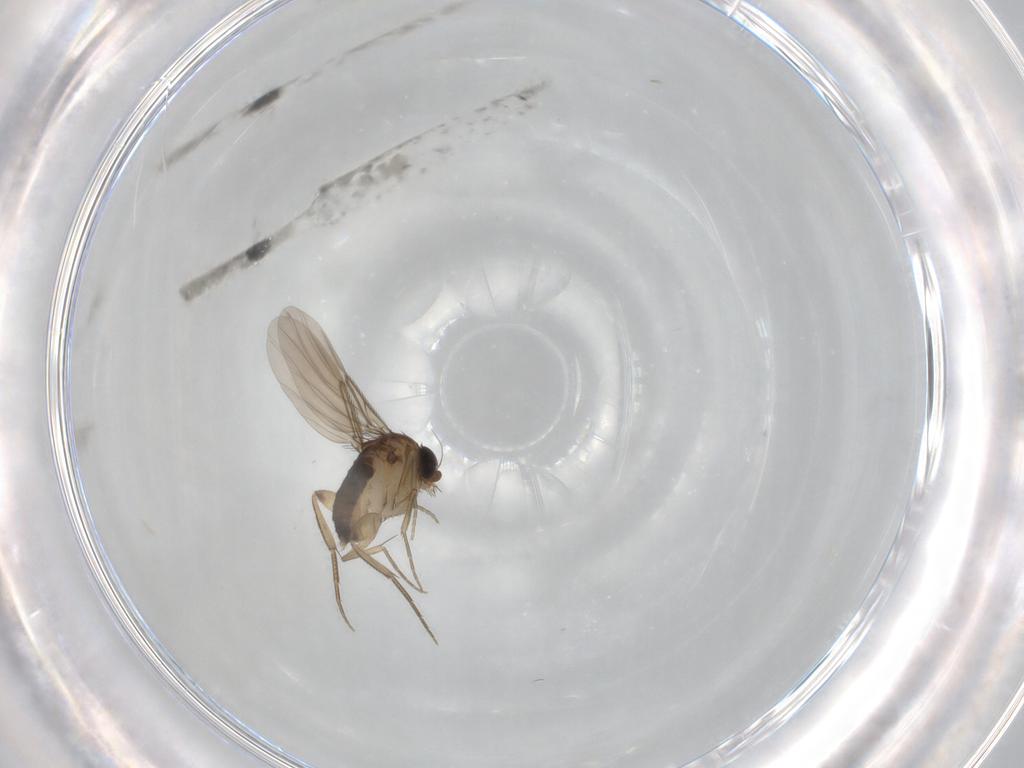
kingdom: Animalia
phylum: Arthropoda
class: Insecta
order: Diptera
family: Phoridae
